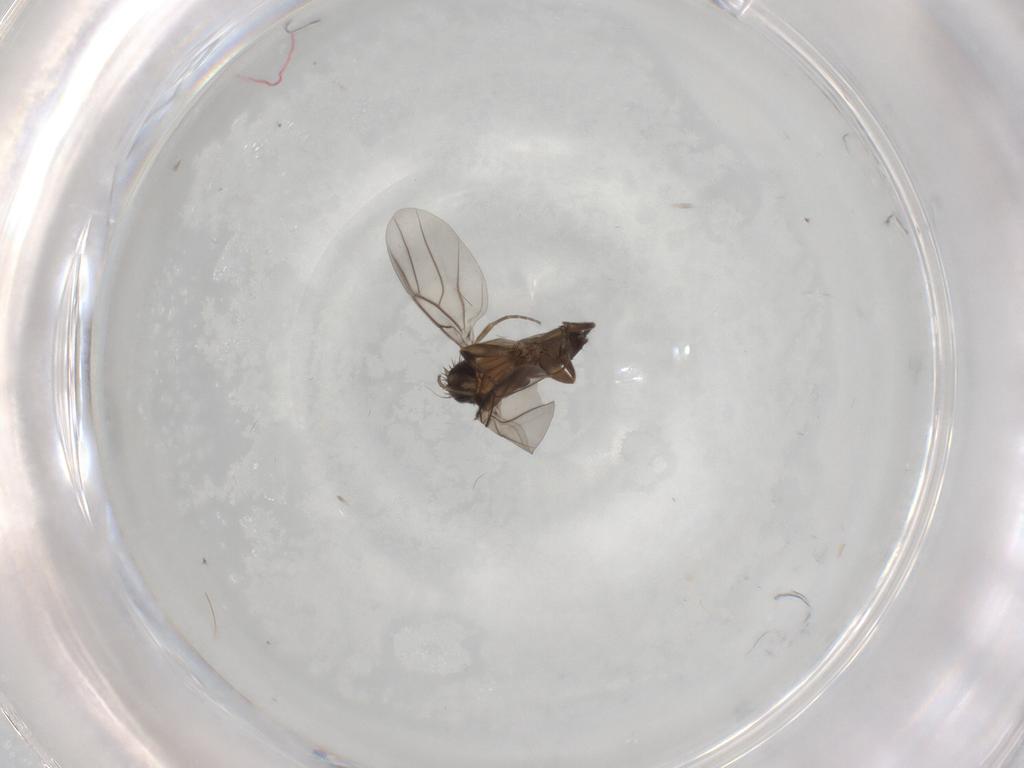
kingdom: Animalia
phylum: Arthropoda
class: Insecta
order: Diptera
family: Phoridae
